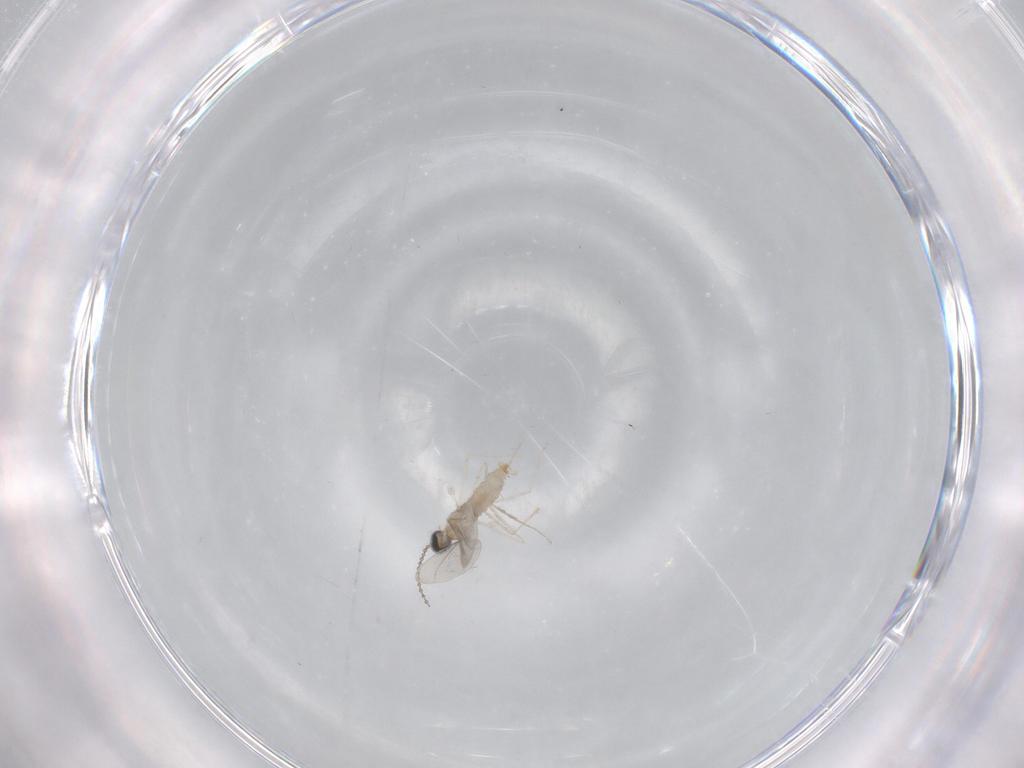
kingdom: Animalia
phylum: Arthropoda
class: Insecta
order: Diptera
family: Cecidomyiidae
